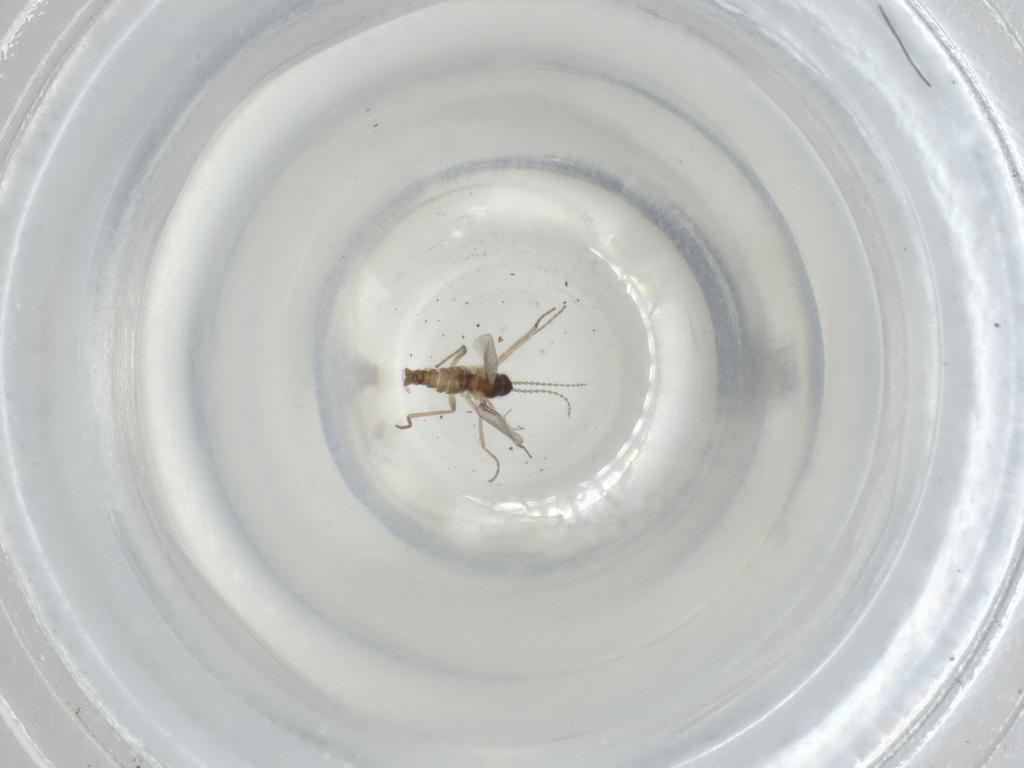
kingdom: Animalia
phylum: Arthropoda
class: Insecta
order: Diptera
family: Cecidomyiidae
